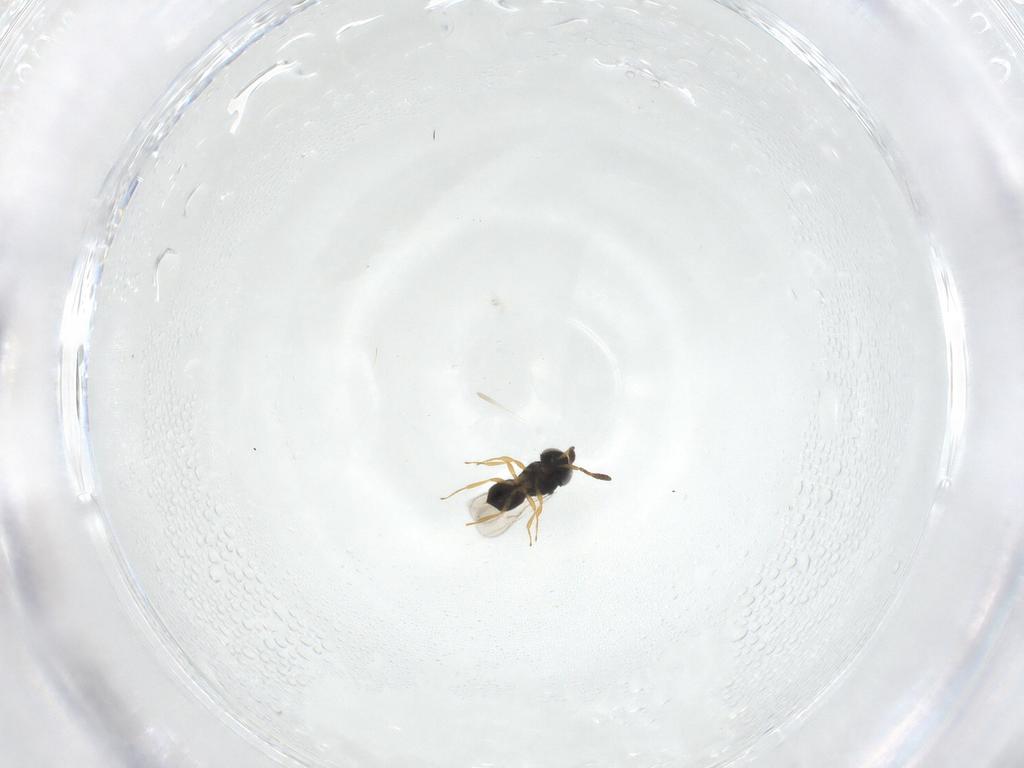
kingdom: Animalia
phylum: Arthropoda
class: Insecta
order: Hymenoptera
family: Scelionidae
